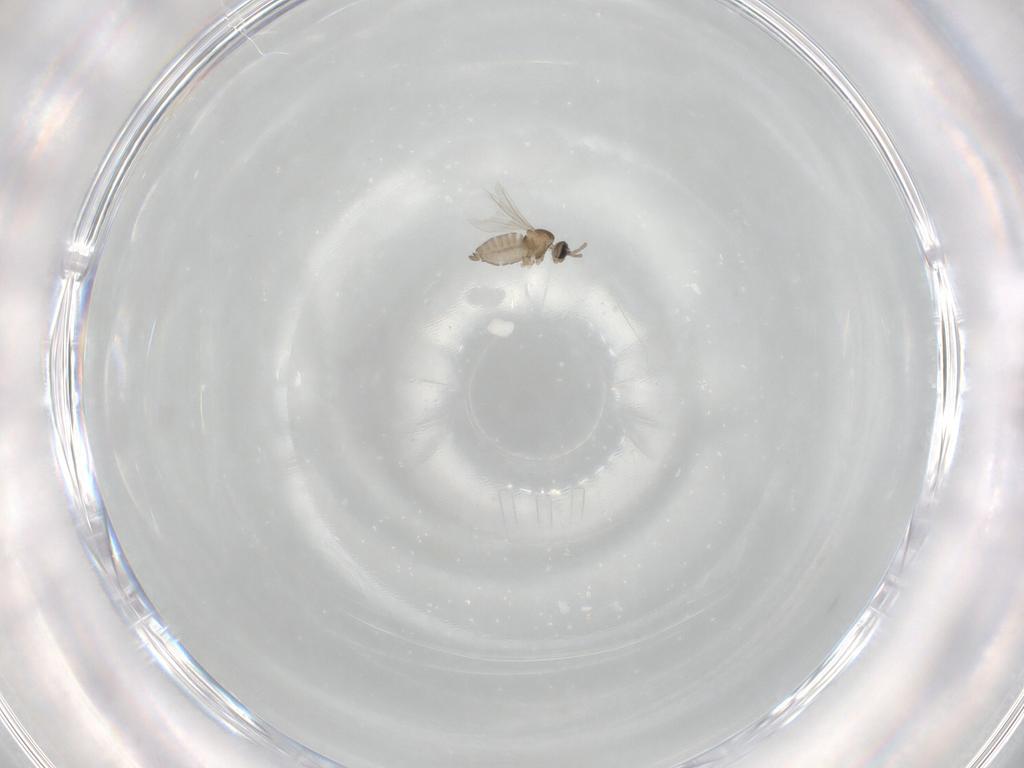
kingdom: Animalia
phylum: Arthropoda
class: Insecta
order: Diptera
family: Cecidomyiidae
